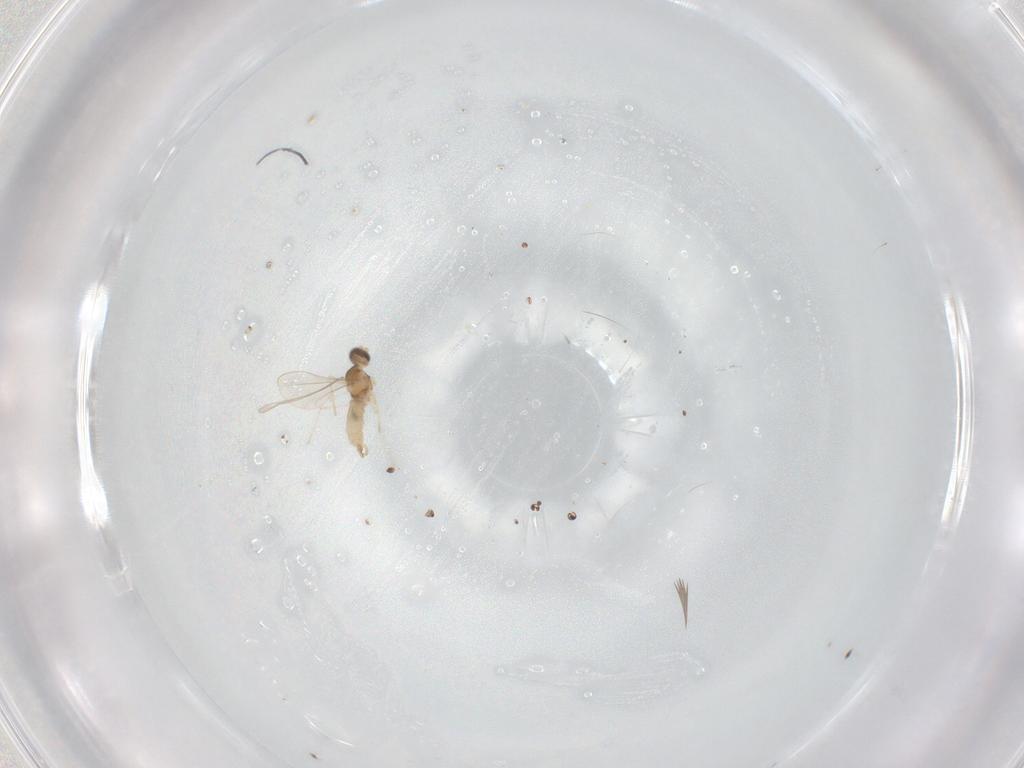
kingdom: Animalia
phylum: Arthropoda
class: Insecta
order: Diptera
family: Cecidomyiidae
